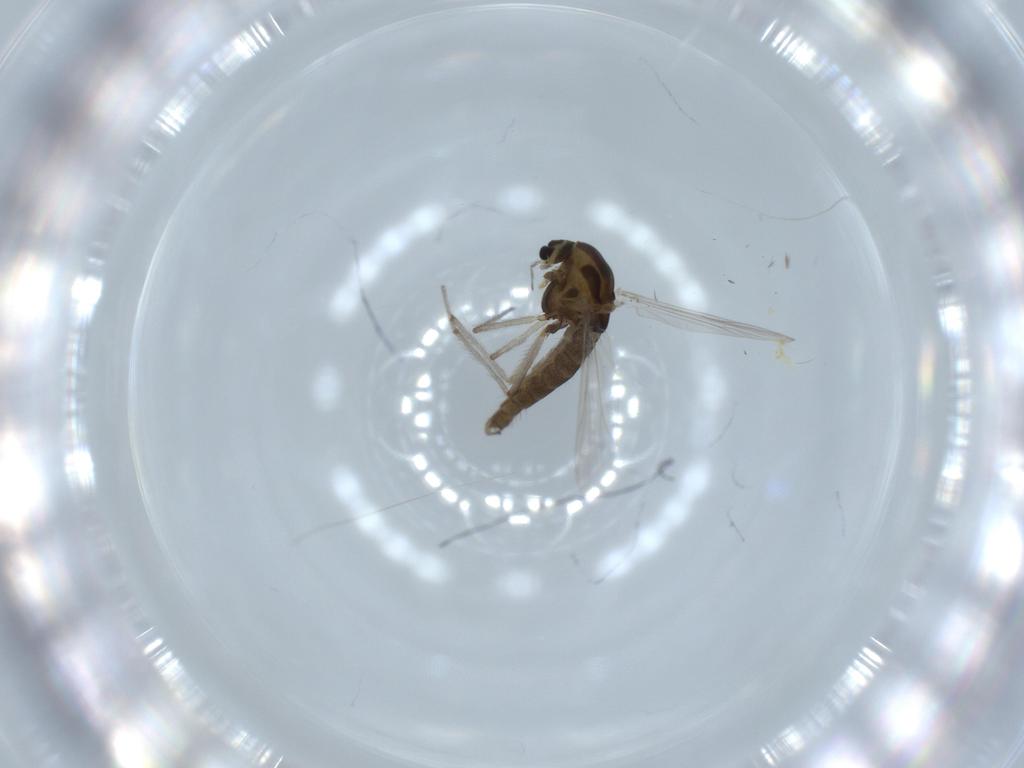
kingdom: Animalia
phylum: Arthropoda
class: Insecta
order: Diptera
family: Chironomidae
